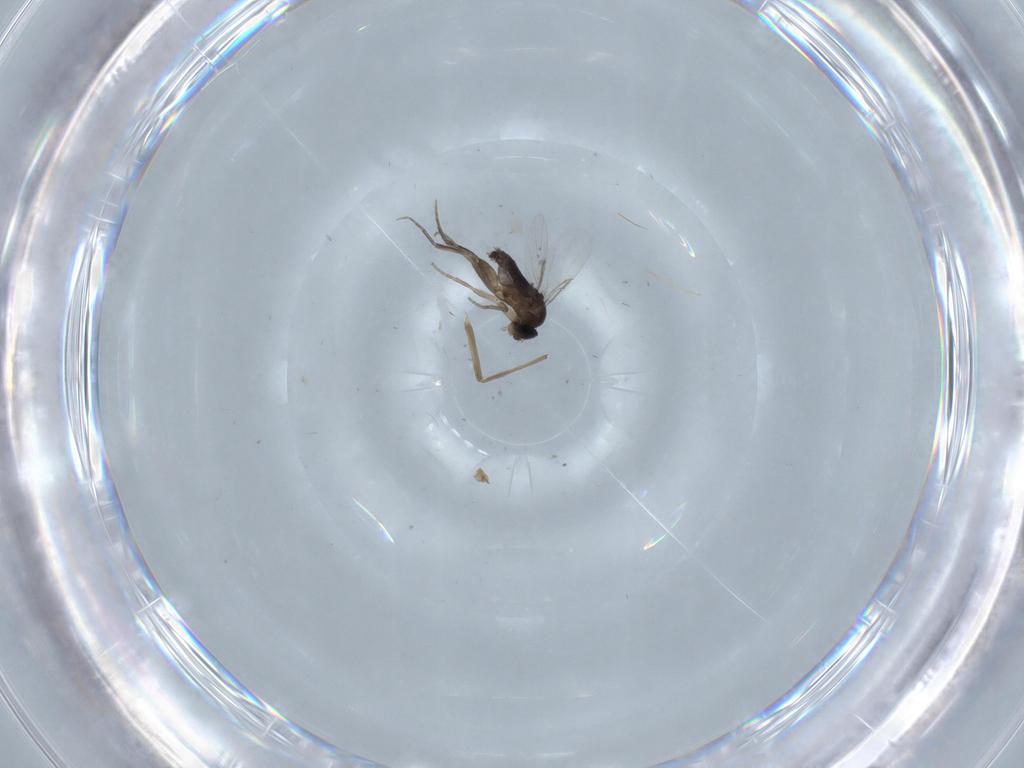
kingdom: Animalia
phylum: Arthropoda
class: Insecta
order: Diptera
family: Chironomidae
